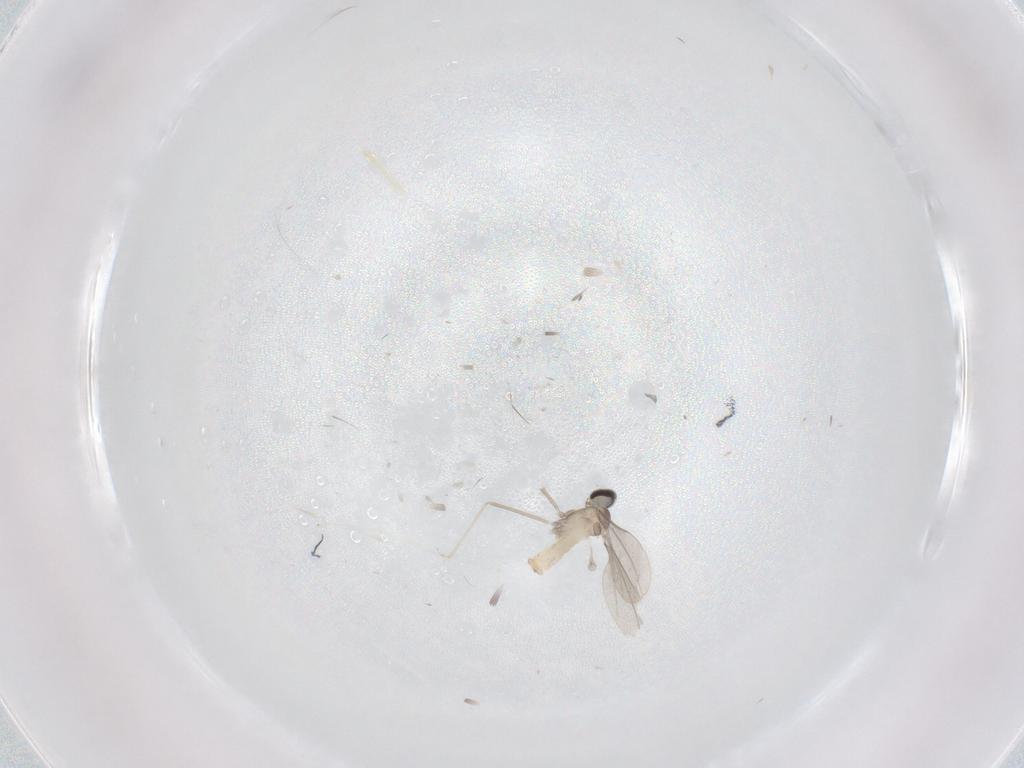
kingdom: Animalia
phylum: Arthropoda
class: Insecta
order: Diptera
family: Cecidomyiidae
